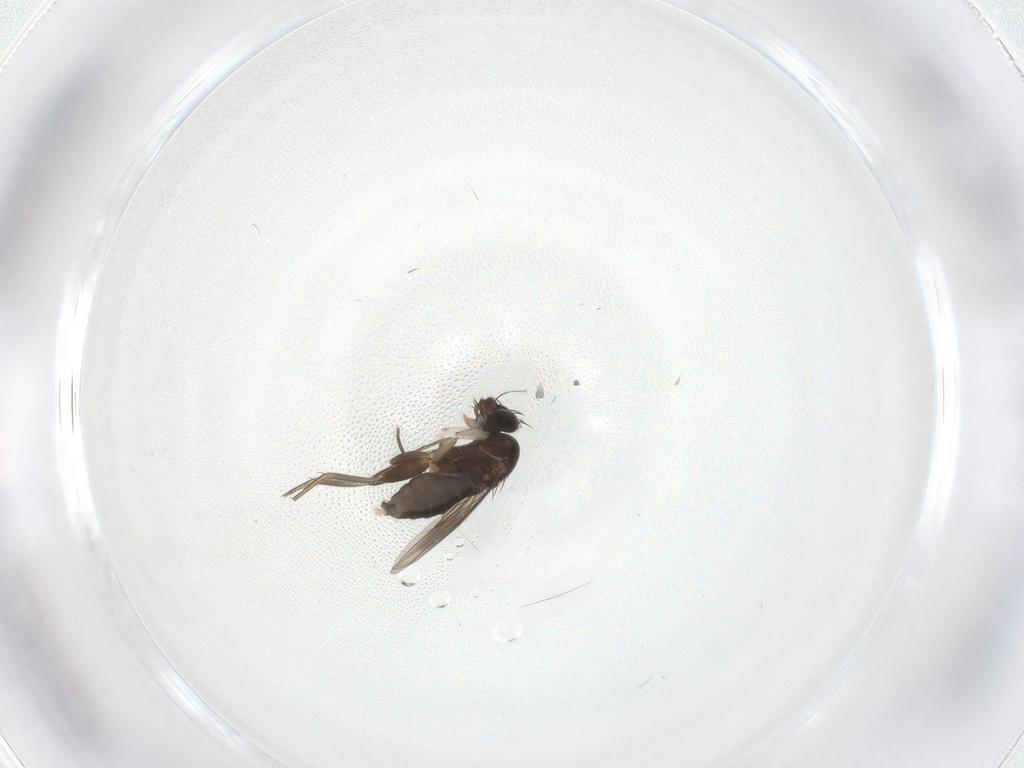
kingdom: Animalia
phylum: Arthropoda
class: Insecta
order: Diptera
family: Phoridae
